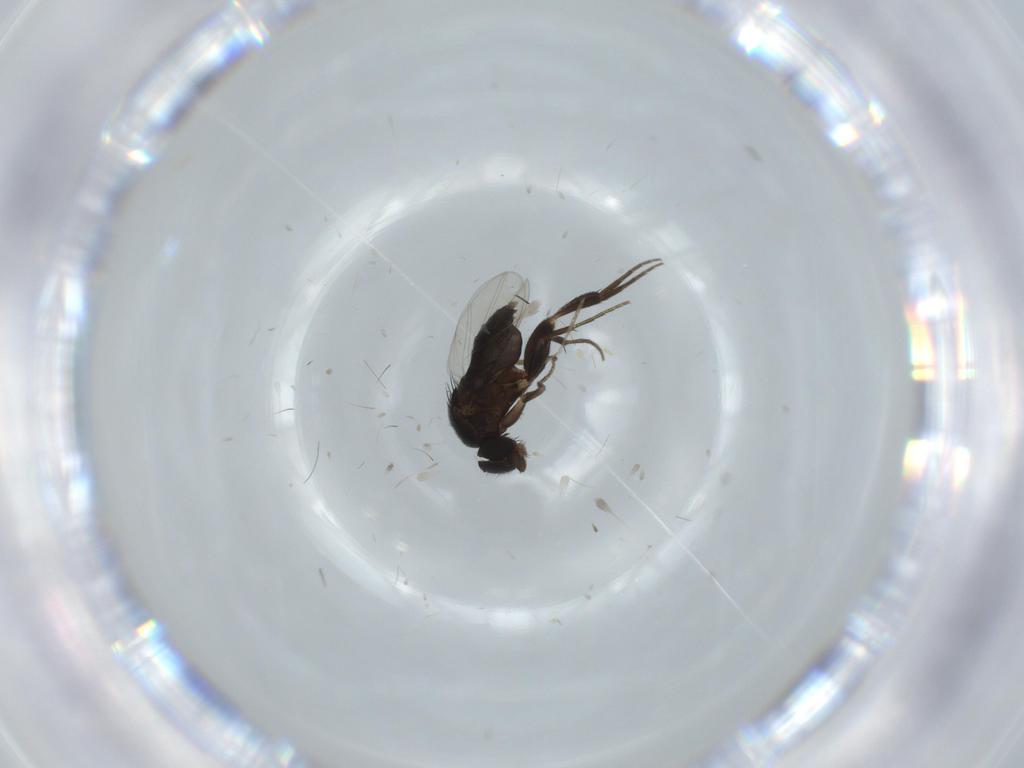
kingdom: Animalia
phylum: Arthropoda
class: Insecta
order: Diptera
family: Phoridae
